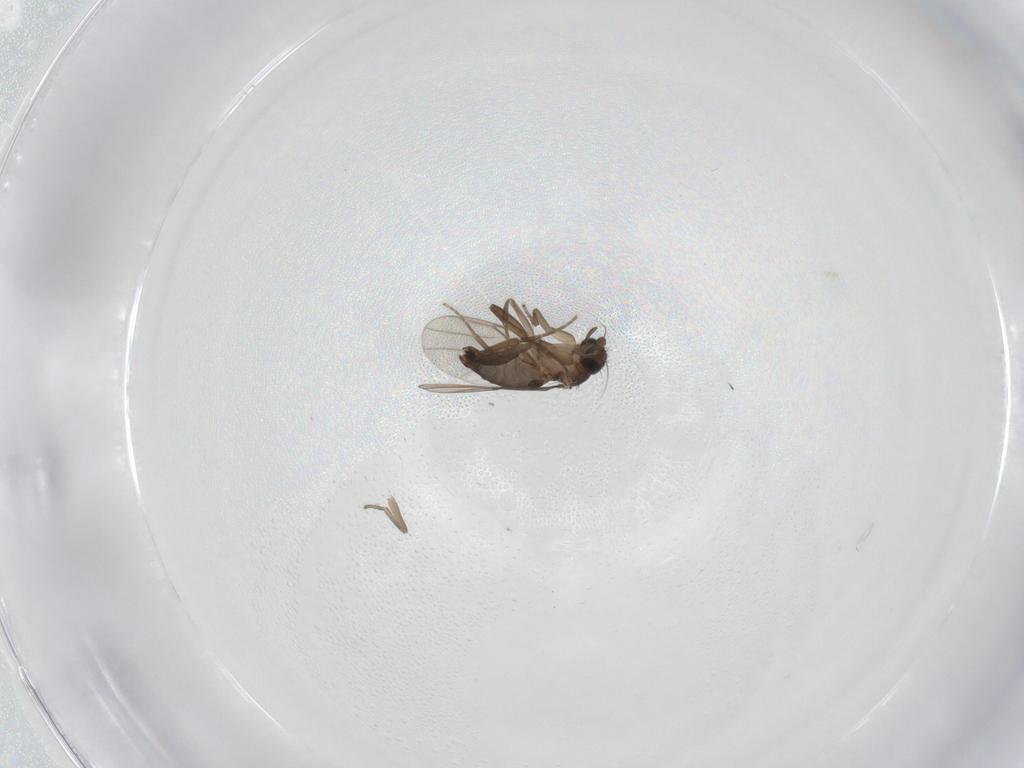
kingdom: Animalia
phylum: Arthropoda
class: Insecta
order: Diptera
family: Phoridae
